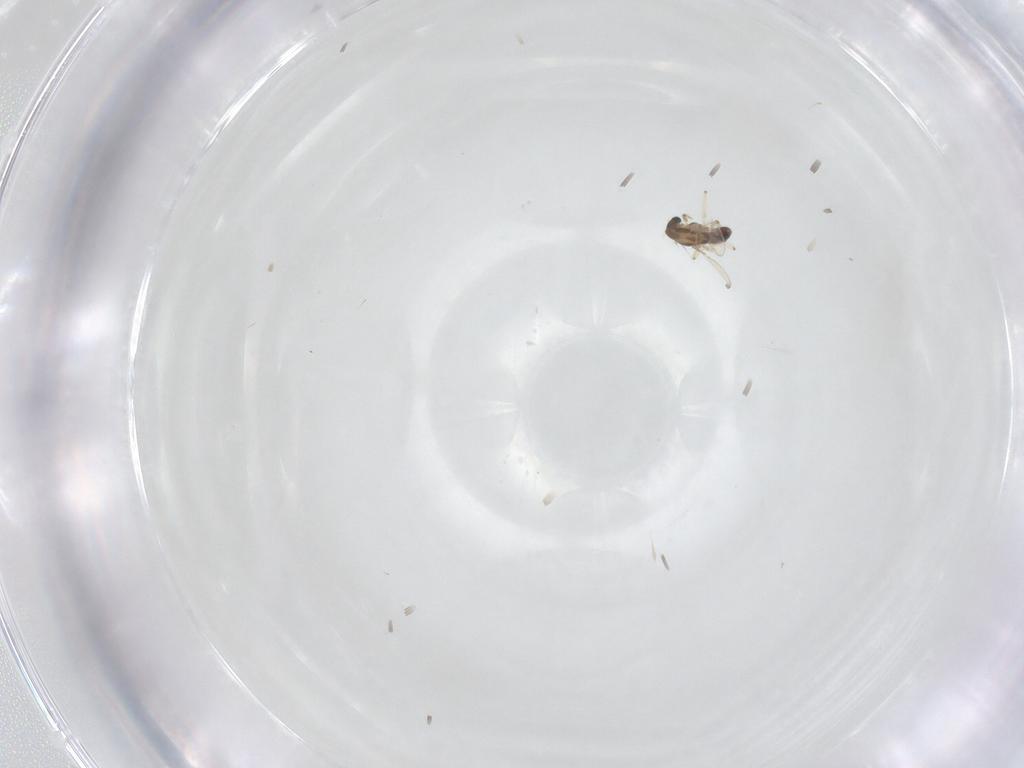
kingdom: Animalia
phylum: Arthropoda
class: Insecta
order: Diptera
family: Chironomidae
